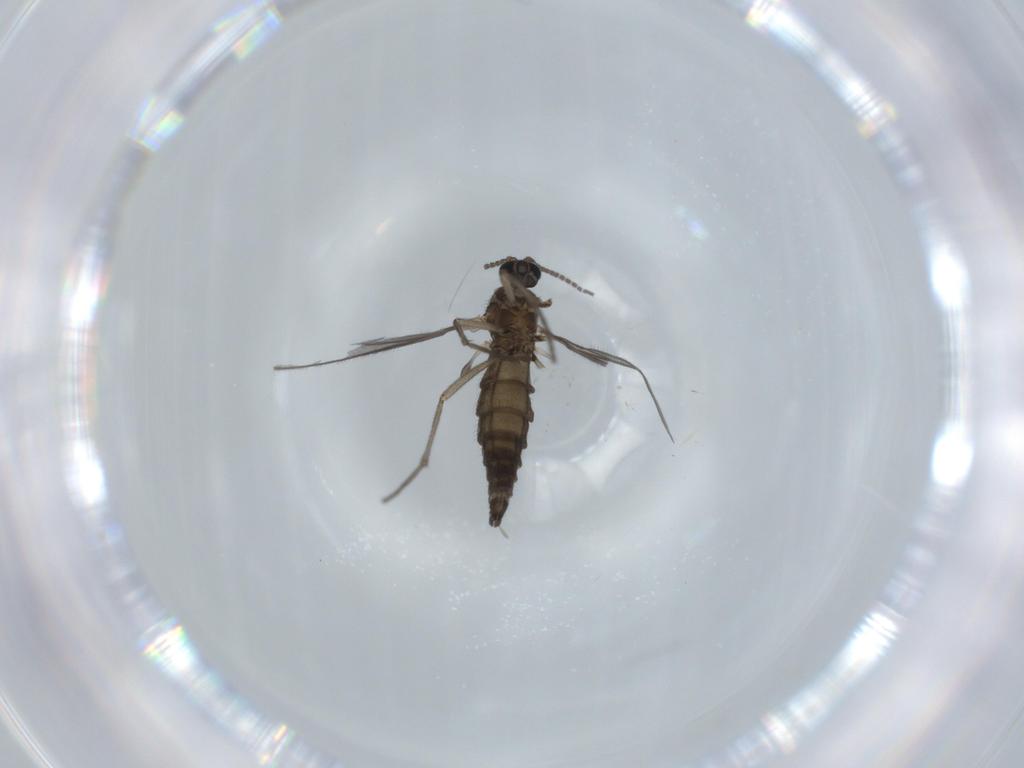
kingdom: Animalia
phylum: Arthropoda
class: Insecta
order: Diptera
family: Sciaridae
